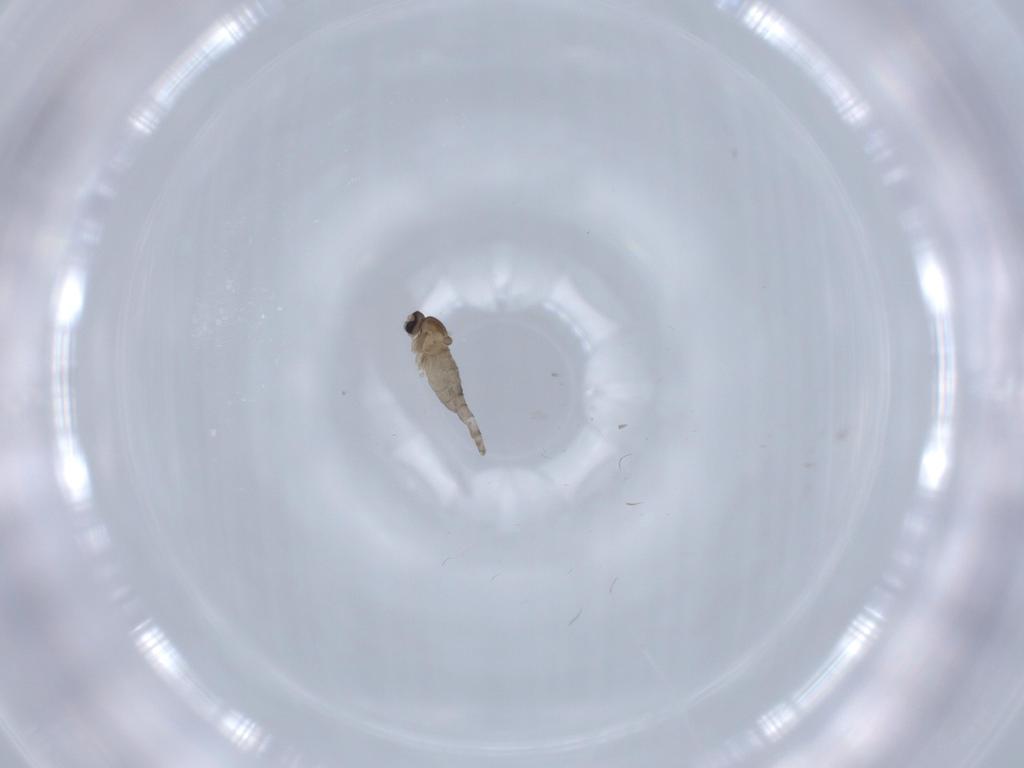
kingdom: Animalia
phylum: Arthropoda
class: Insecta
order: Diptera
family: Cecidomyiidae
